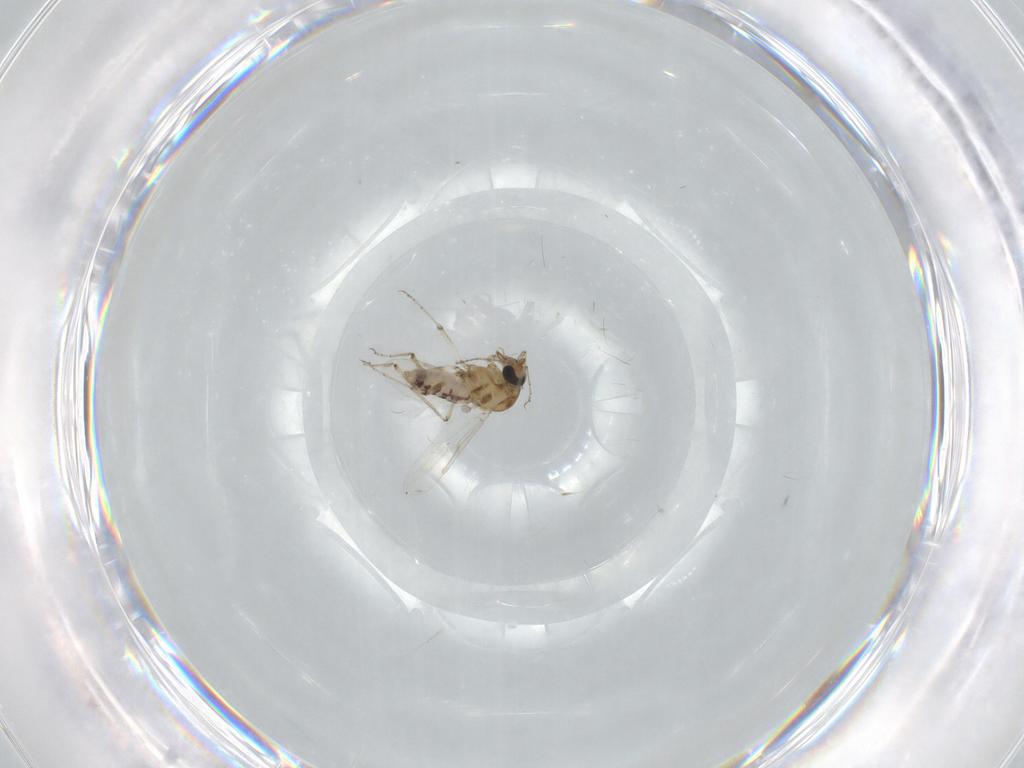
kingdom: Animalia
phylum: Arthropoda
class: Insecta
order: Diptera
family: Ceratopogonidae
